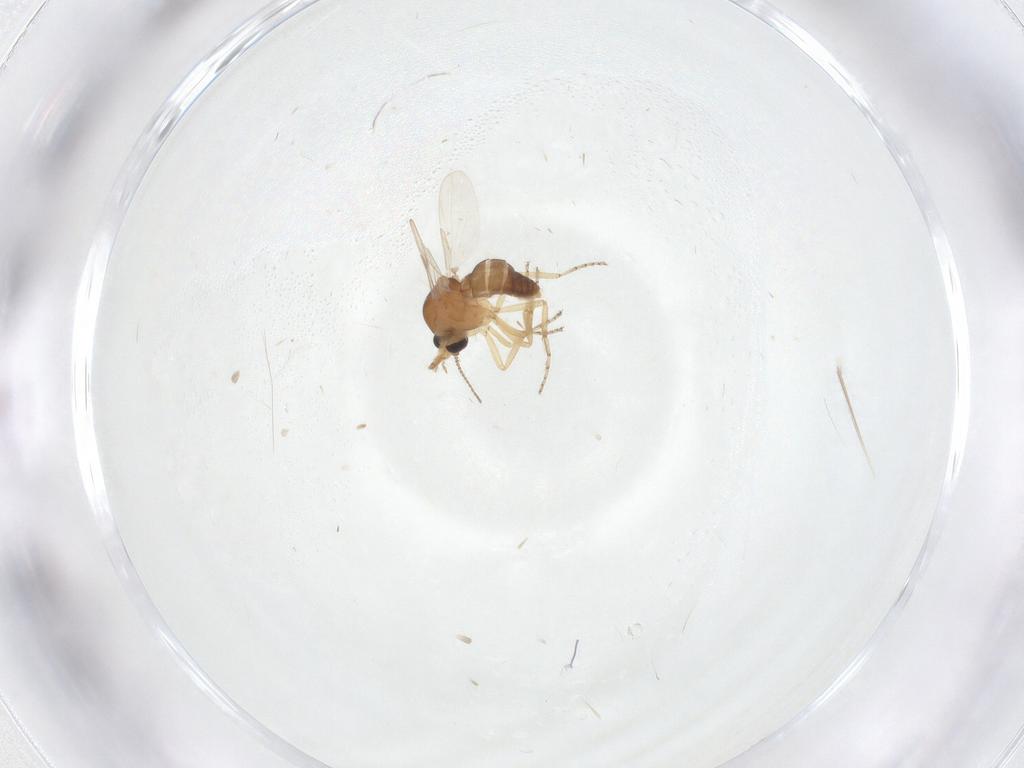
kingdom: Animalia
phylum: Arthropoda
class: Insecta
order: Diptera
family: Ceratopogonidae
